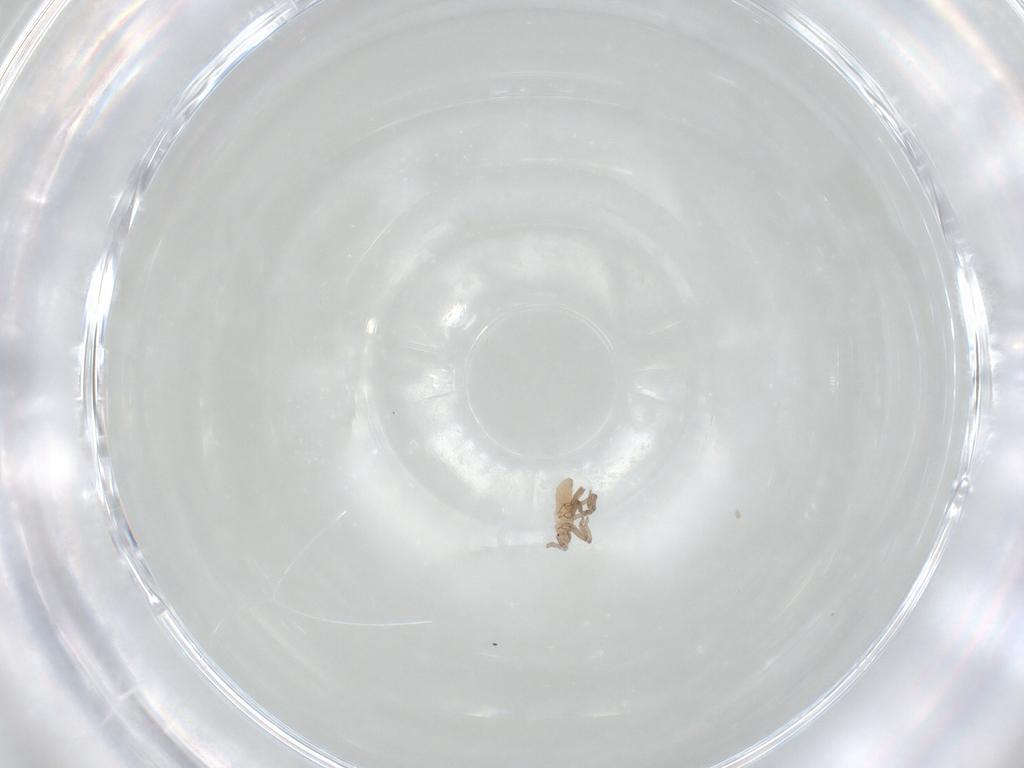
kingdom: Animalia
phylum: Arthropoda
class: Insecta
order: Hemiptera
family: Aphididae
